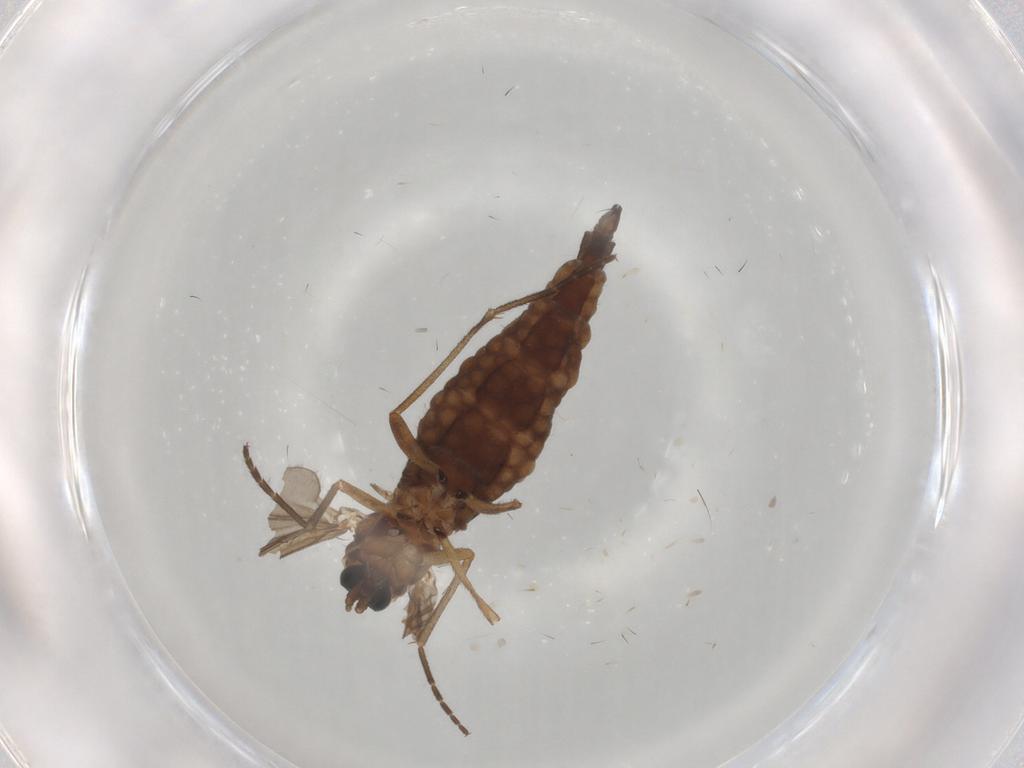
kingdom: Animalia
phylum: Arthropoda
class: Insecta
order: Diptera
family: Sciaridae
